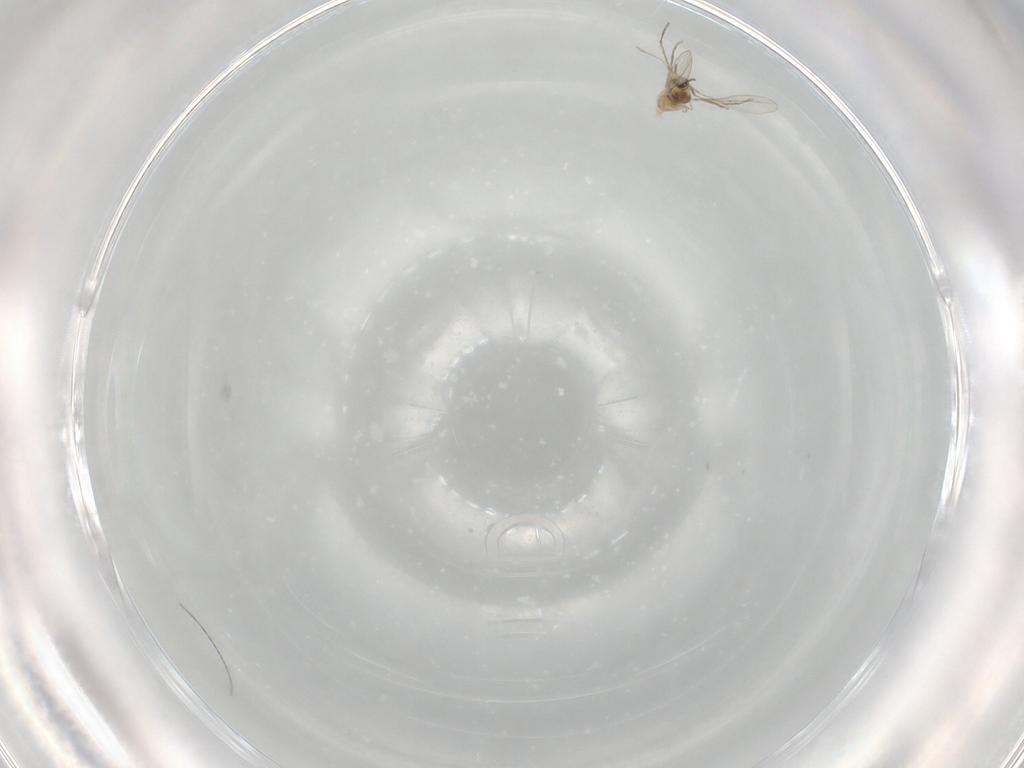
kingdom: Animalia
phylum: Arthropoda
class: Insecta
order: Diptera
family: Cecidomyiidae
